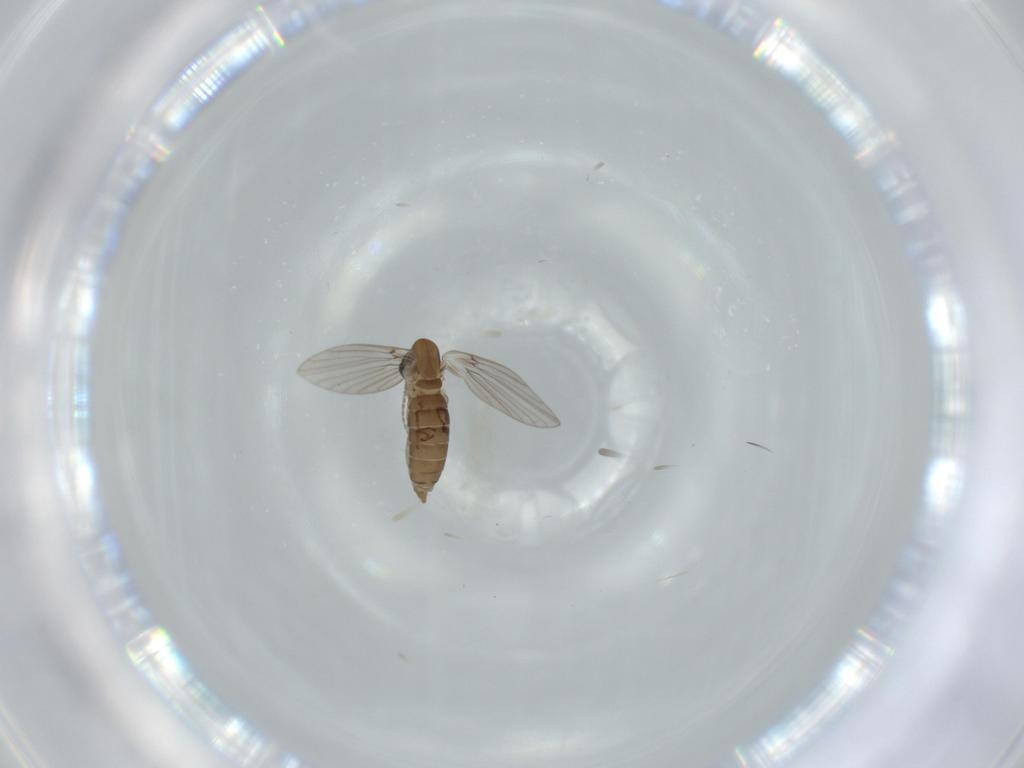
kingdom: Animalia
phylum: Arthropoda
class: Insecta
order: Diptera
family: Sphaeroceridae
